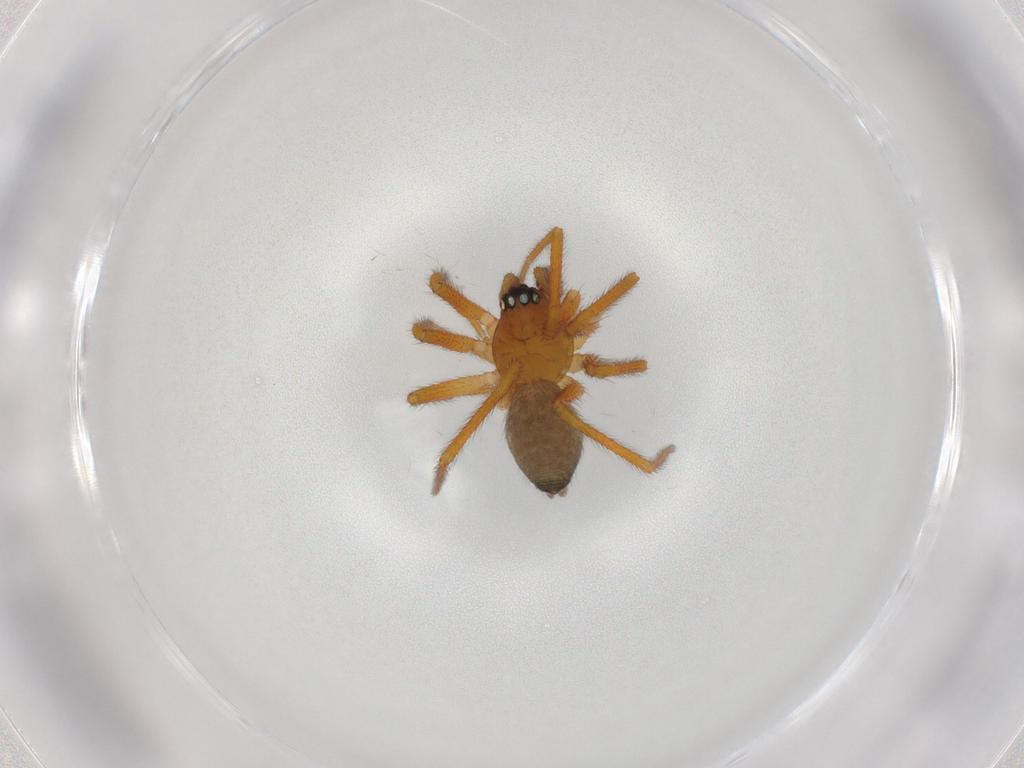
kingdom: Animalia
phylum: Arthropoda
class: Arachnida
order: Araneae
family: Linyphiidae
